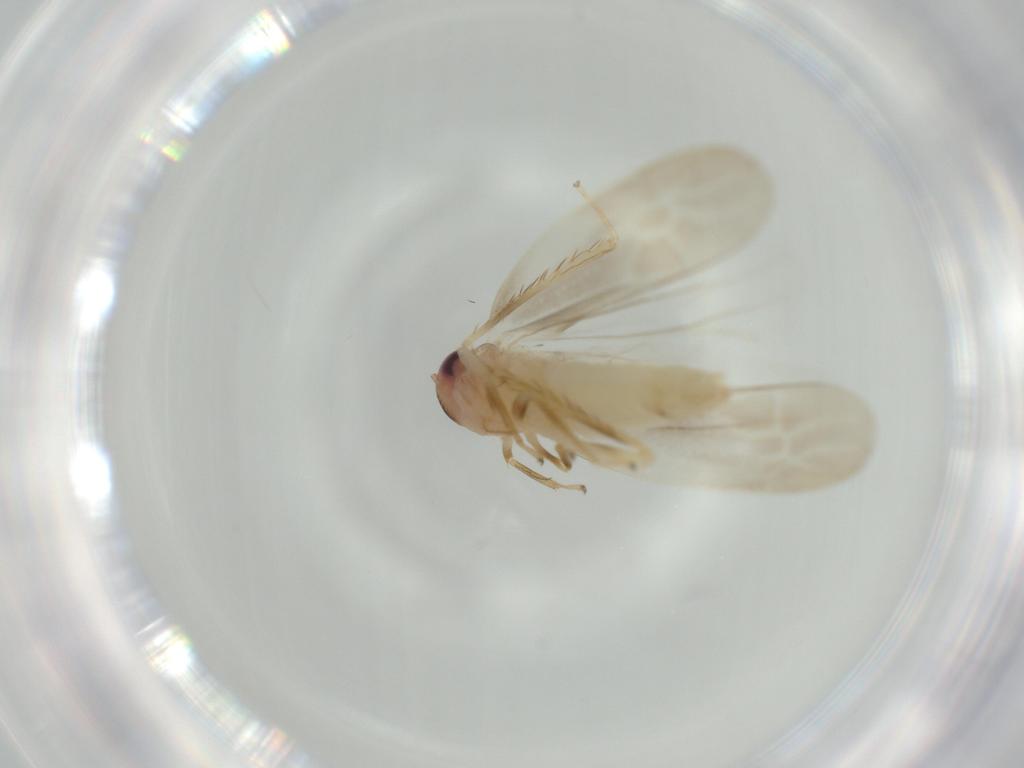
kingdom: Animalia
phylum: Arthropoda
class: Insecta
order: Hemiptera
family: Cicadellidae
